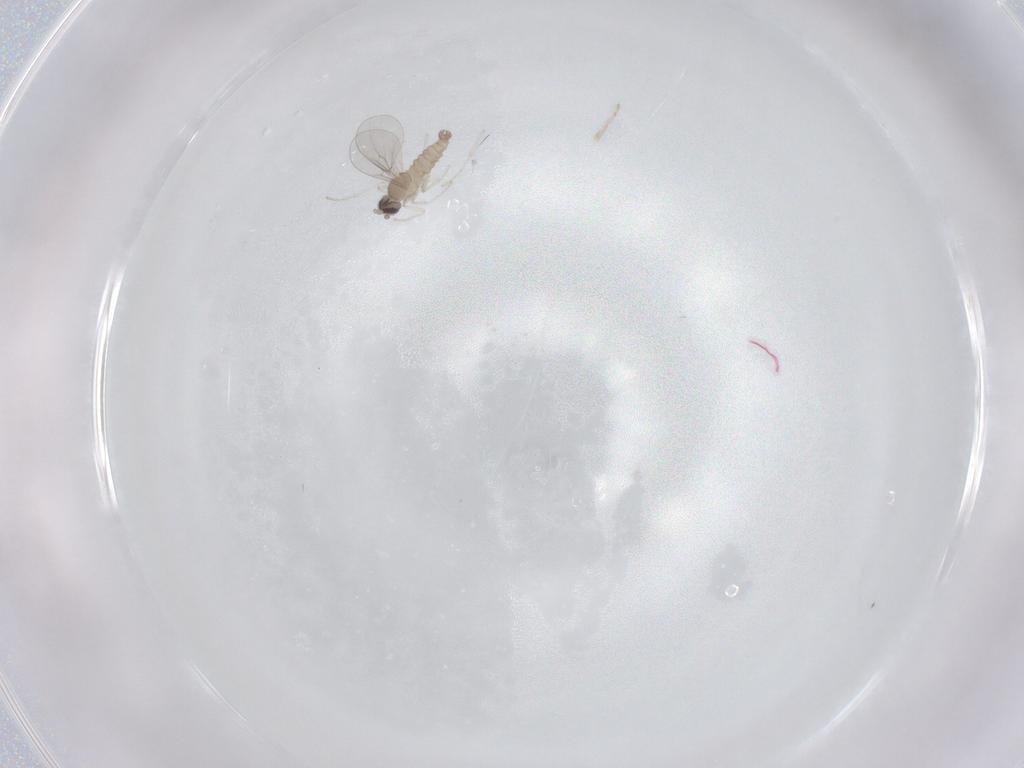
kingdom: Animalia
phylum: Arthropoda
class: Insecta
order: Diptera
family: Cecidomyiidae
